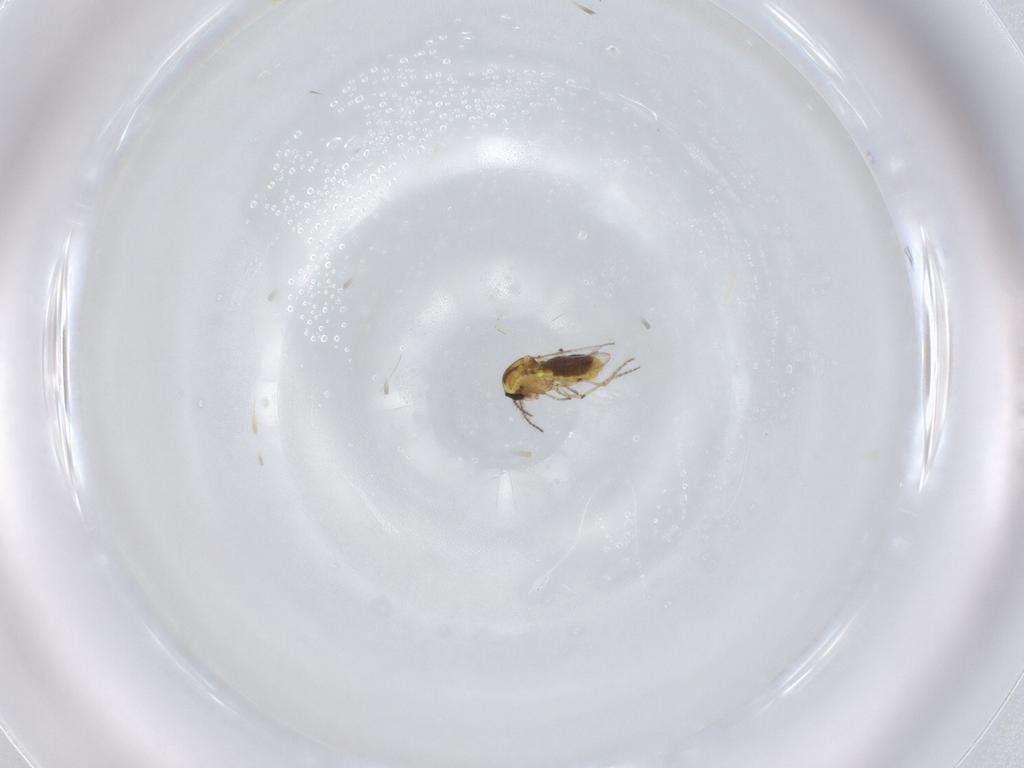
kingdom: Animalia
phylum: Arthropoda
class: Insecta
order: Diptera
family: Ceratopogonidae
